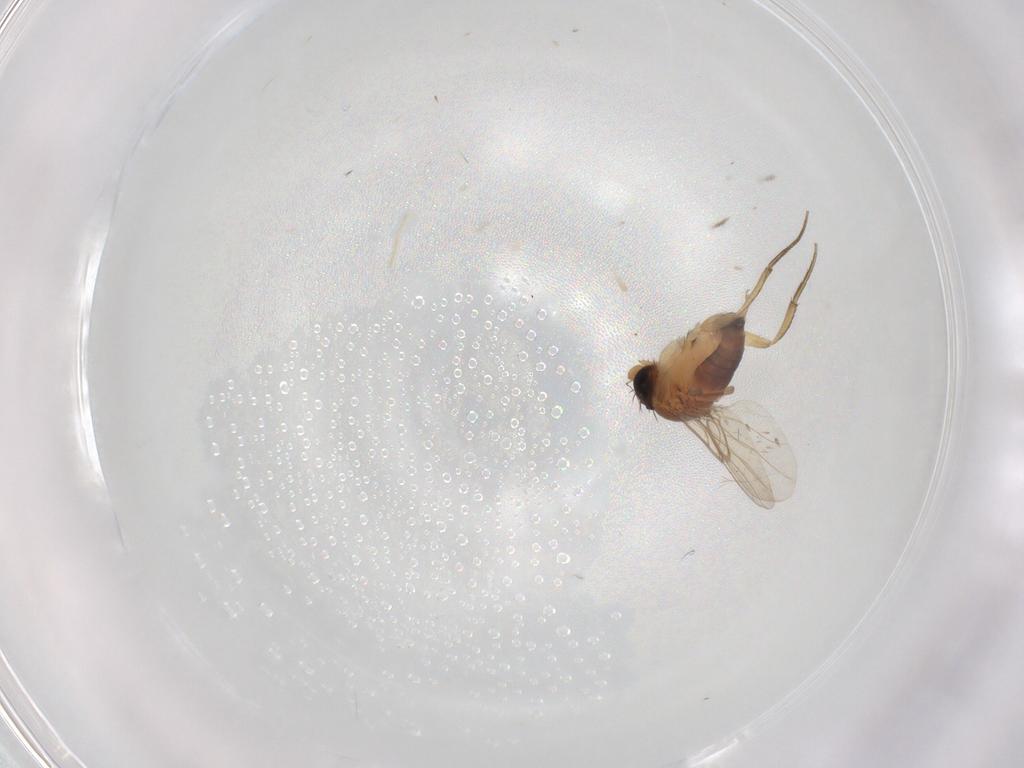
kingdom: Animalia
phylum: Arthropoda
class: Insecta
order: Diptera
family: Phoridae
